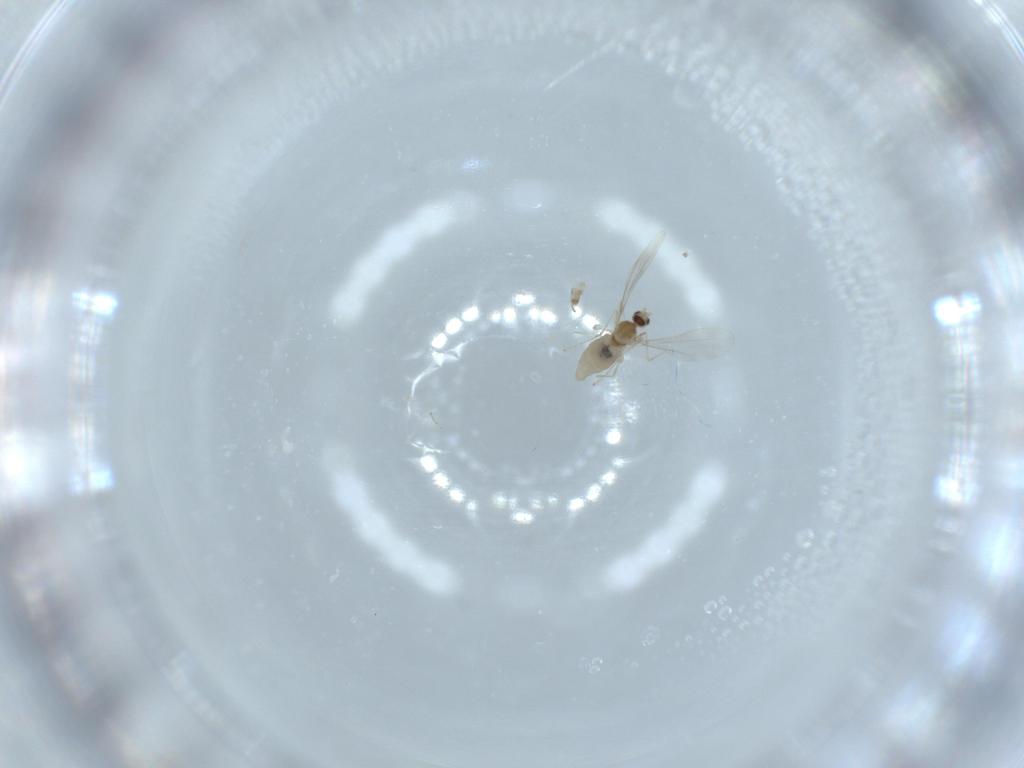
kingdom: Animalia
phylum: Arthropoda
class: Insecta
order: Diptera
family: Cecidomyiidae
